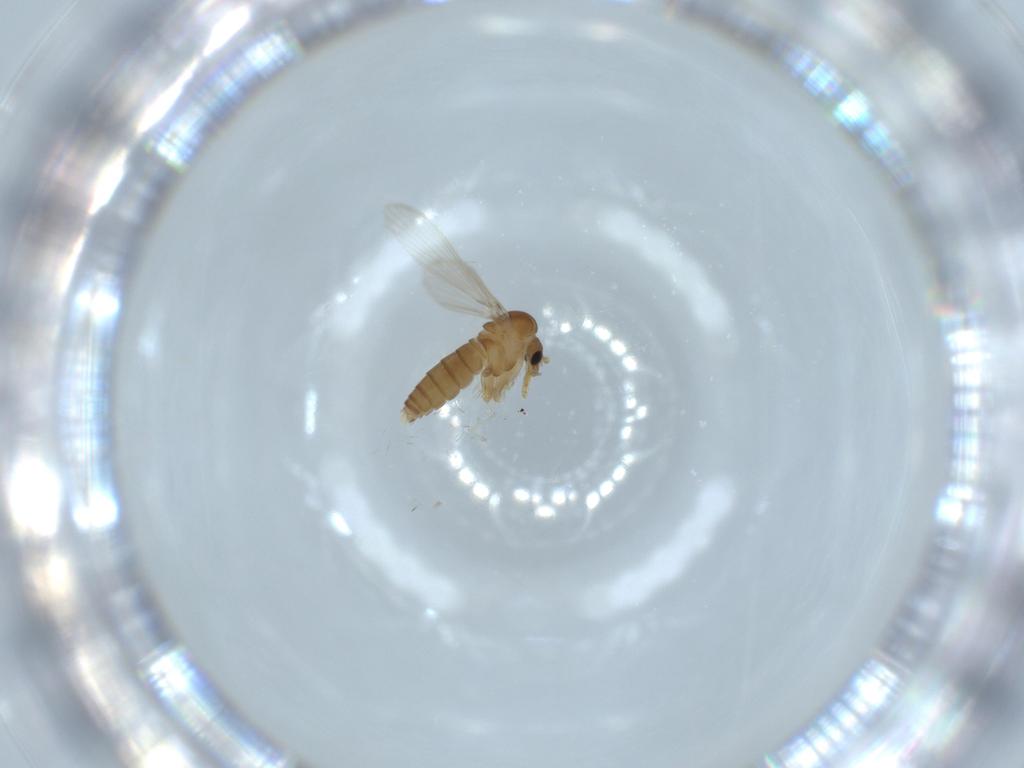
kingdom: Animalia
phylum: Arthropoda
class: Insecta
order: Diptera
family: Psychodidae
